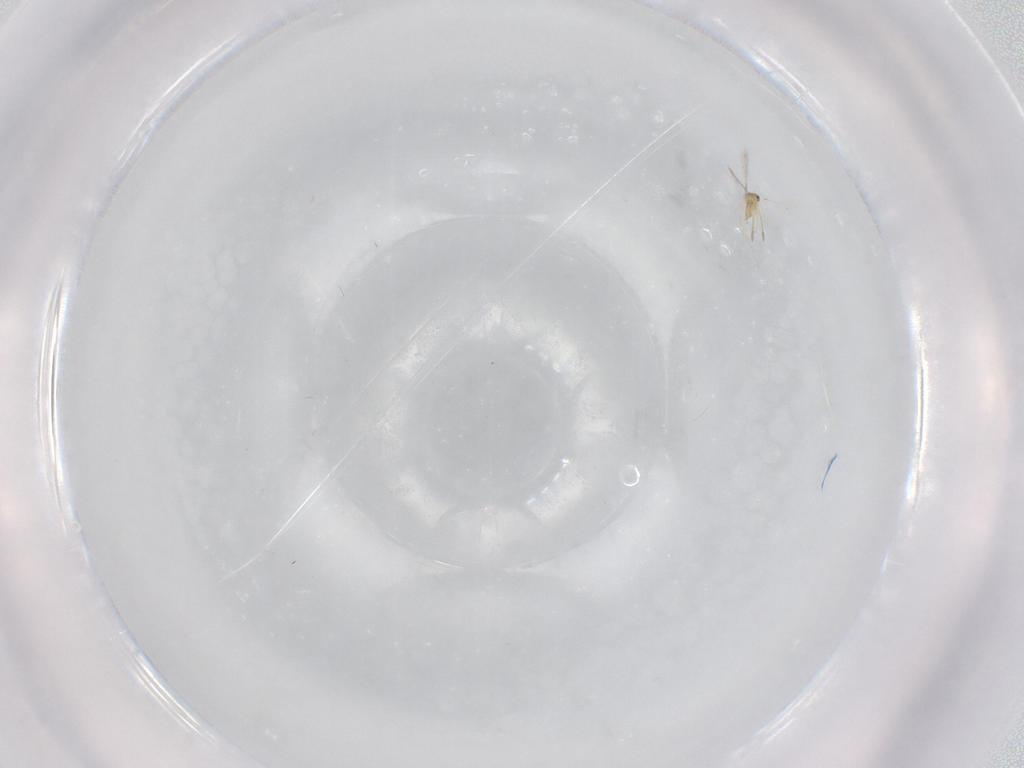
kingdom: Animalia
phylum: Arthropoda
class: Insecta
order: Hymenoptera
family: Mymaridae
